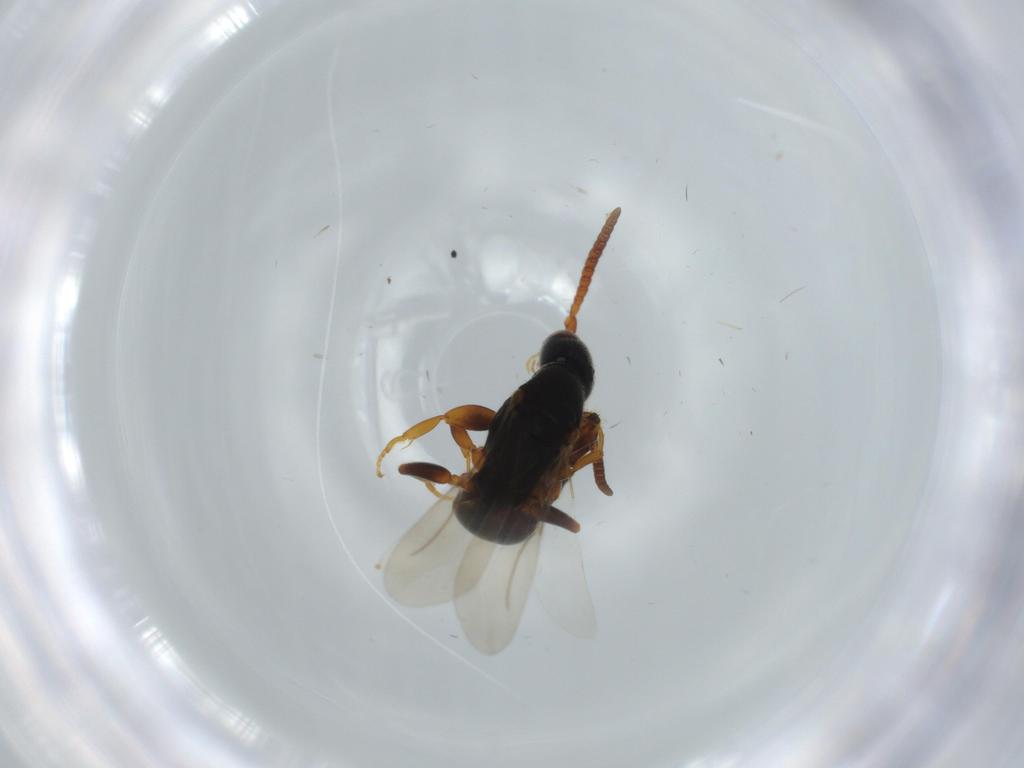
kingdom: Animalia
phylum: Arthropoda
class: Insecta
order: Hymenoptera
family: Bethylidae
